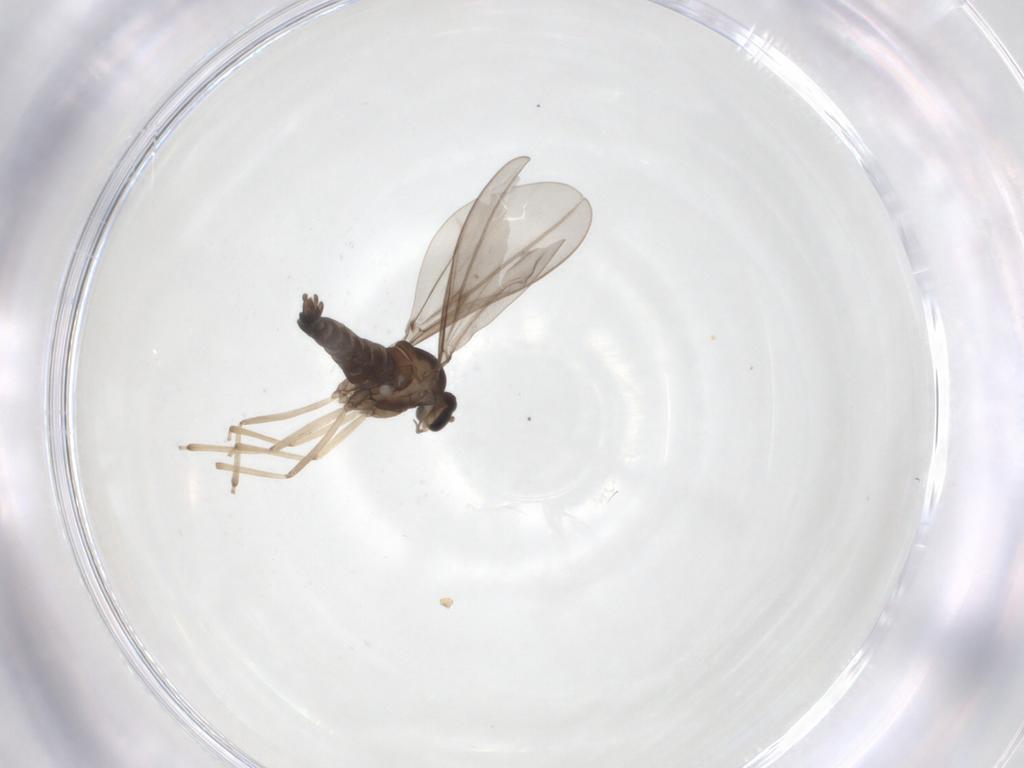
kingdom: Animalia
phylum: Arthropoda
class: Insecta
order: Diptera
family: Cecidomyiidae
